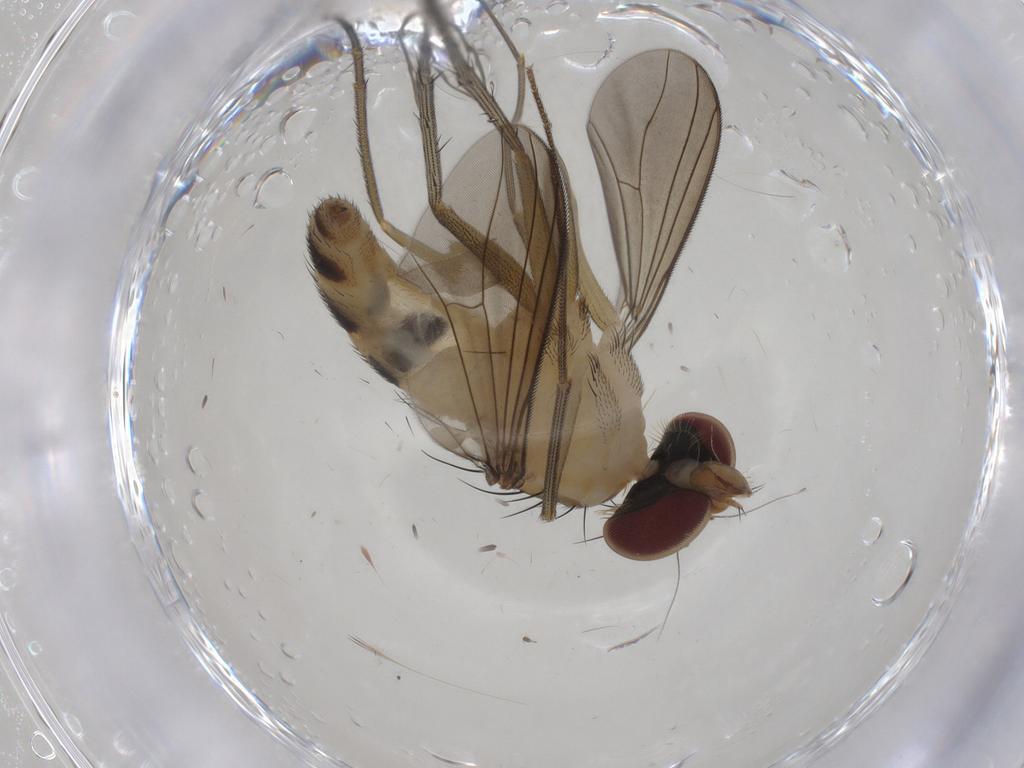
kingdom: Animalia
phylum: Arthropoda
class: Insecta
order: Diptera
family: Dolichopodidae
